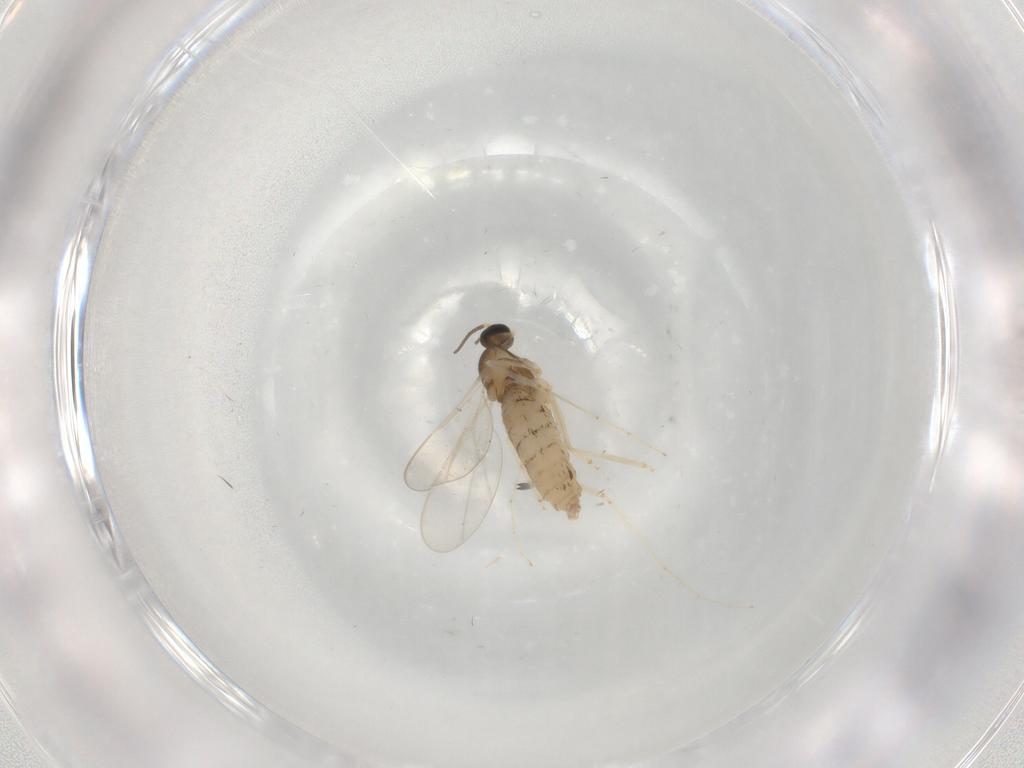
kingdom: Animalia
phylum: Arthropoda
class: Insecta
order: Diptera
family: Cecidomyiidae
